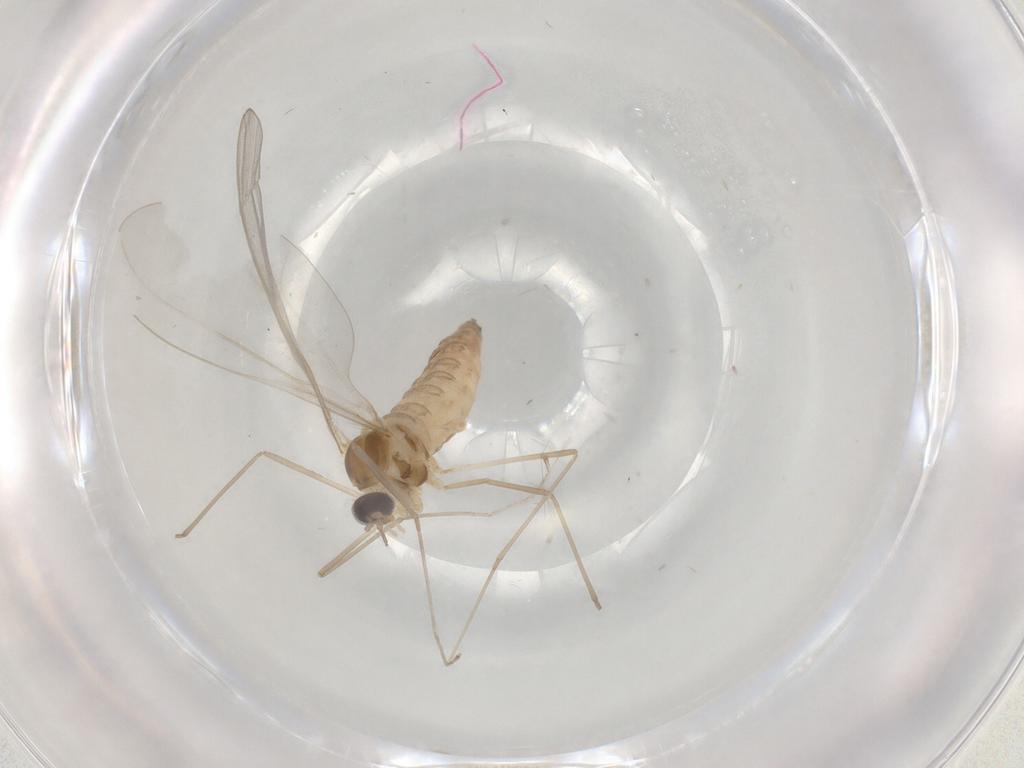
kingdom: Animalia
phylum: Arthropoda
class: Insecta
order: Diptera
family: Cecidomyiidae
